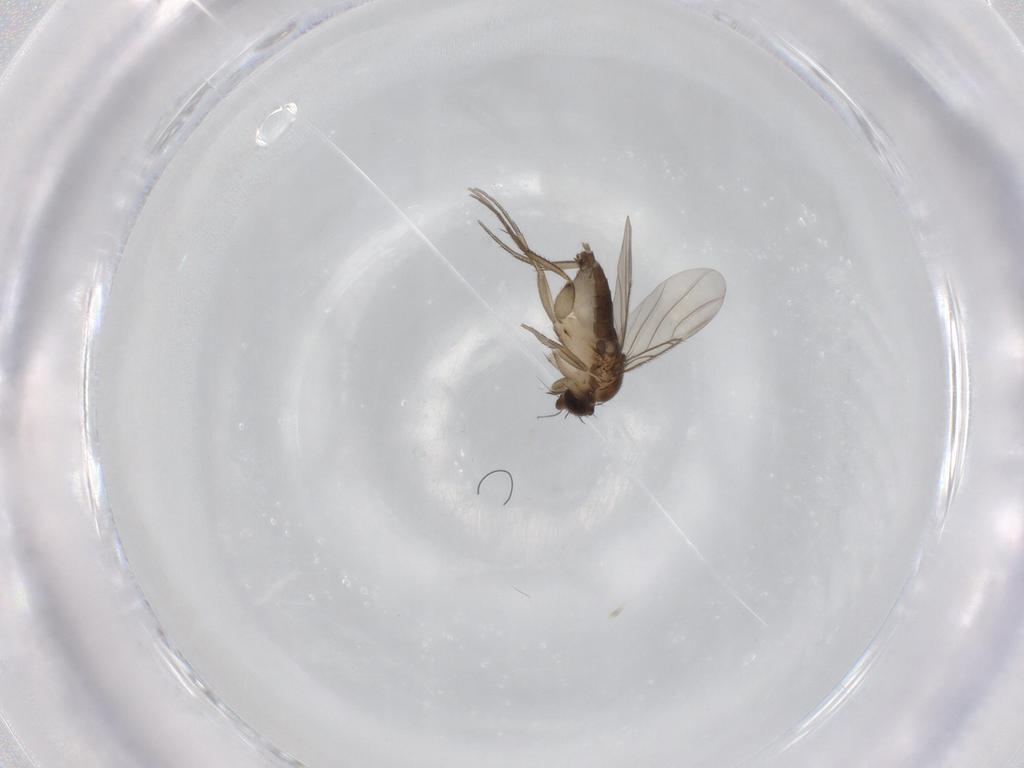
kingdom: Animalia
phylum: Arthropoda
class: Insecta
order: Diptera
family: Phoridae
